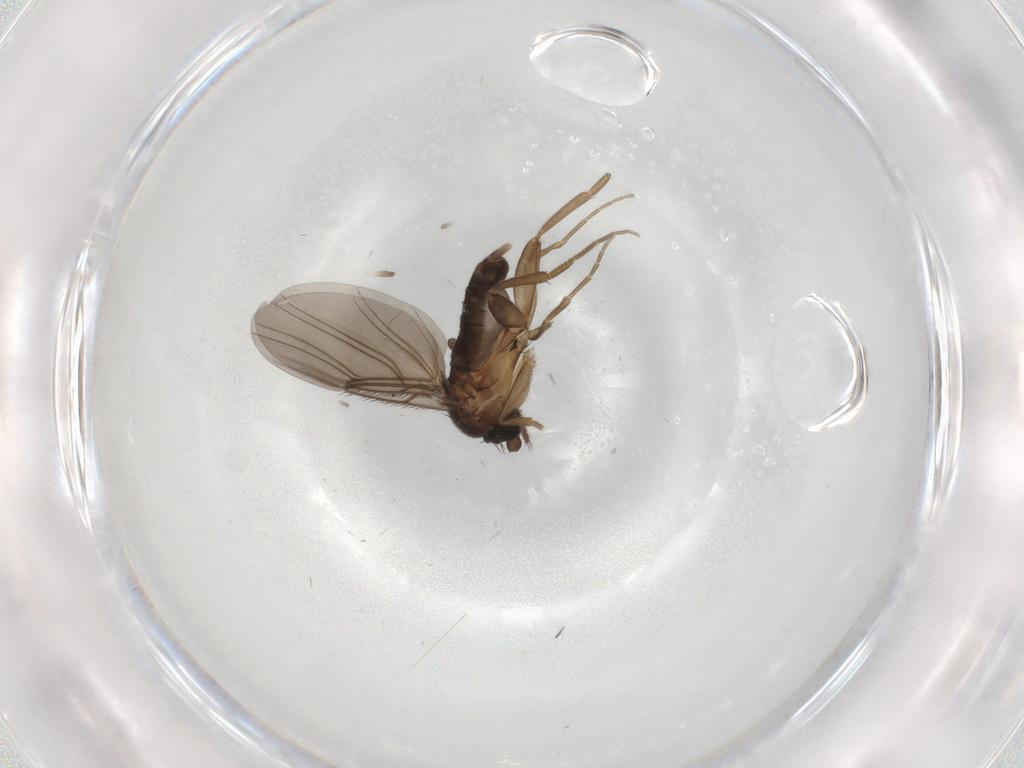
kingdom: Animalia
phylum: Arthropoda
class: Insecta
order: Diptera
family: Phoridae
